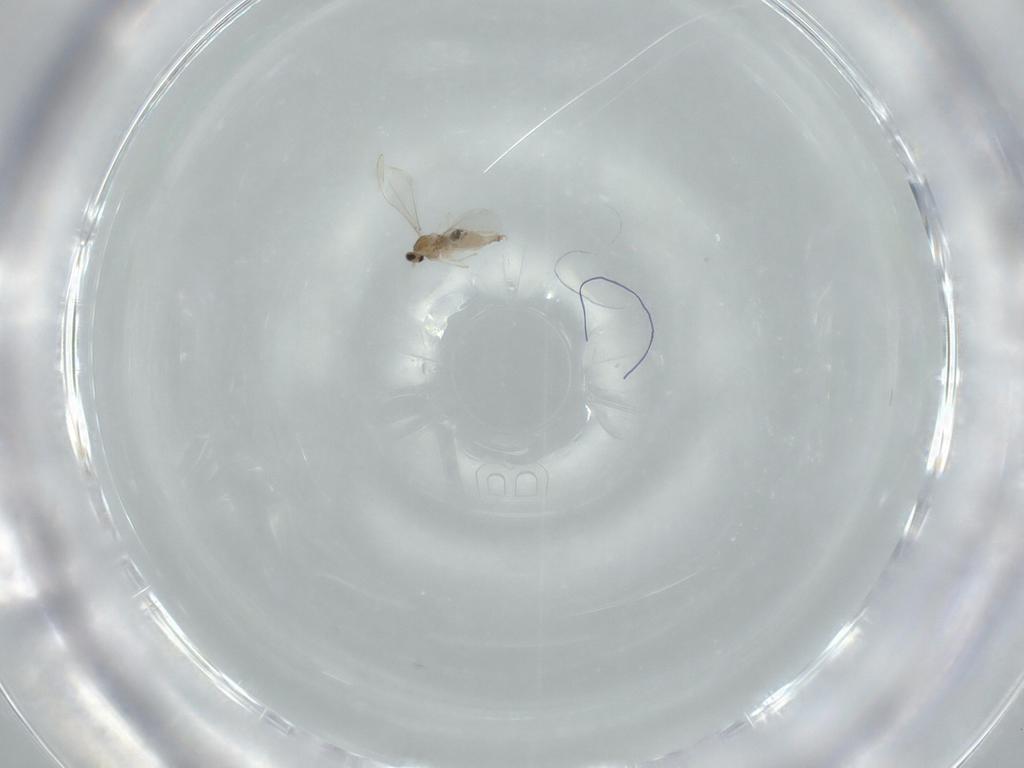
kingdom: Animalia
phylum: Arthropoda
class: Insecta
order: Diptera
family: Cecidomyiidae
